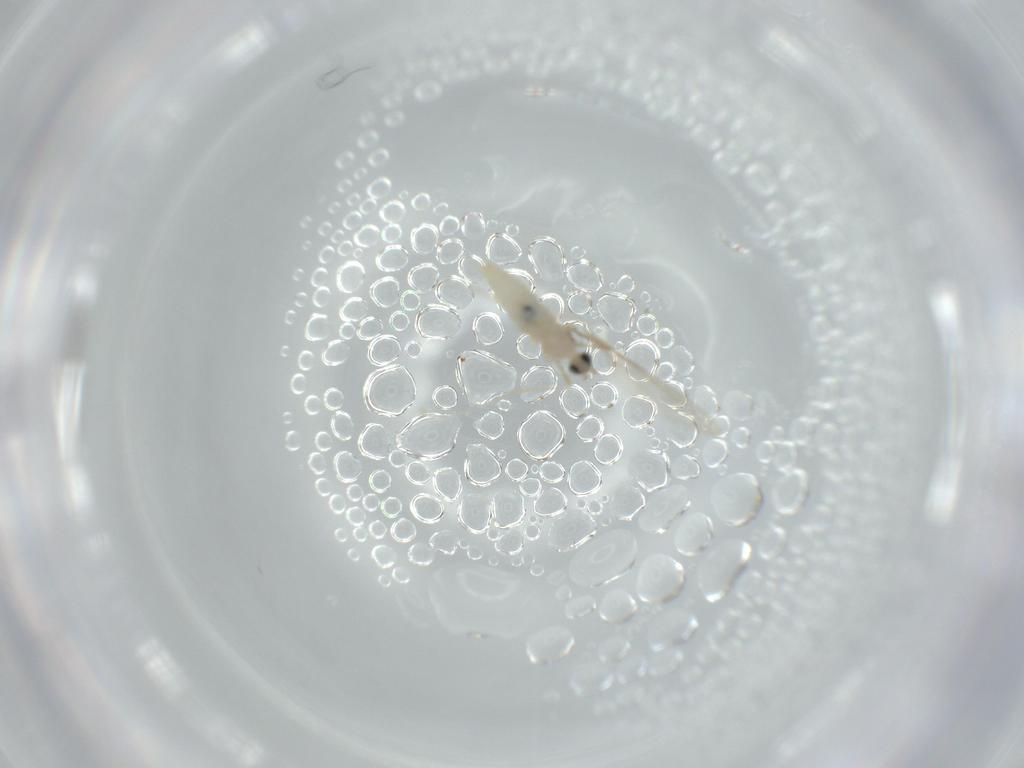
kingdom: Animalia
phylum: Arthropoda
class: Insecta
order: Diptera
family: Cecidomyiidae
